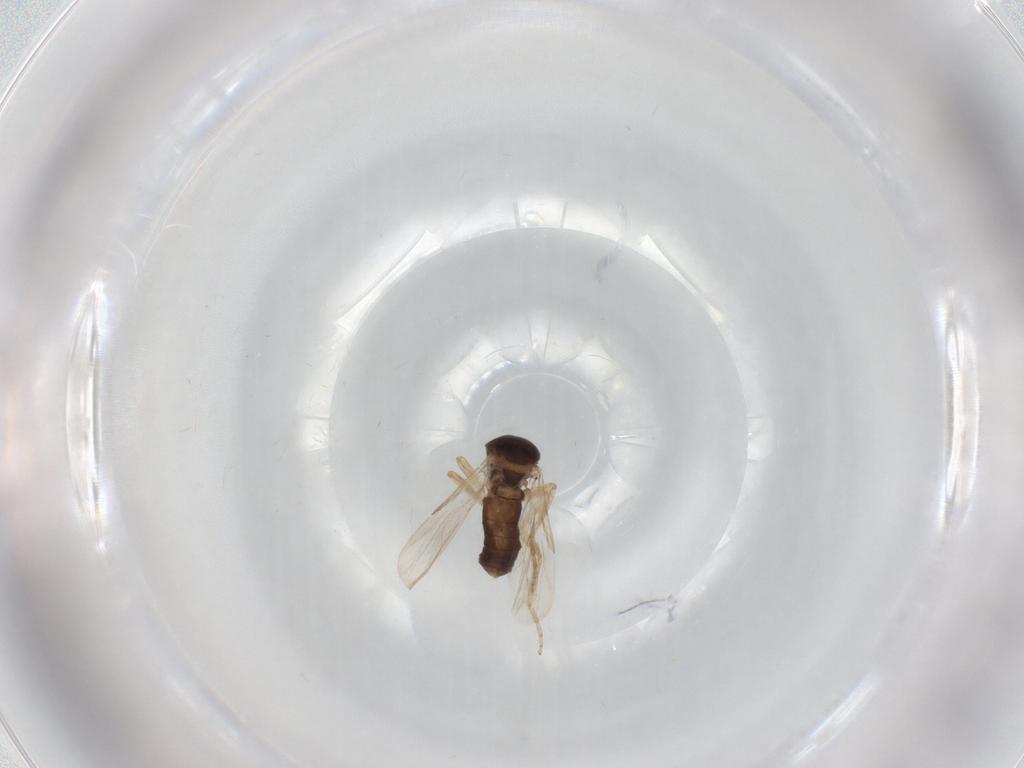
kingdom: Animalia
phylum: Arthropoda
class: Insecta
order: Diptera
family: Ceratopogonidae
